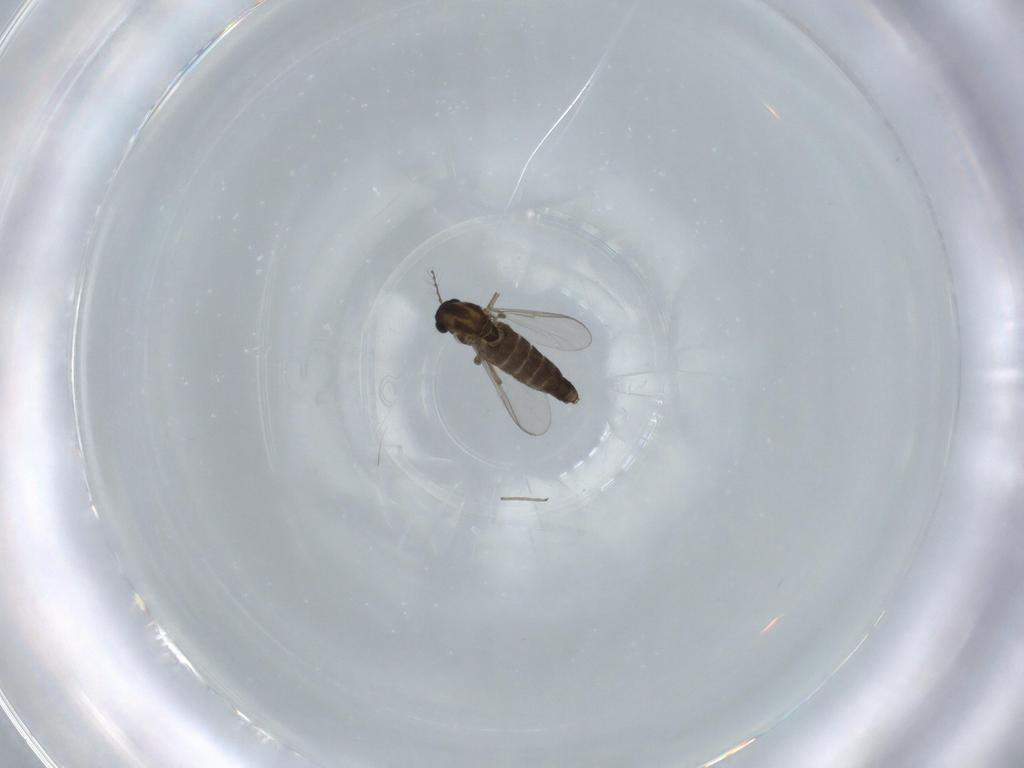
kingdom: Animalia
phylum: Arthropoda
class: Insecta
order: Diptera
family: Chironomidae
